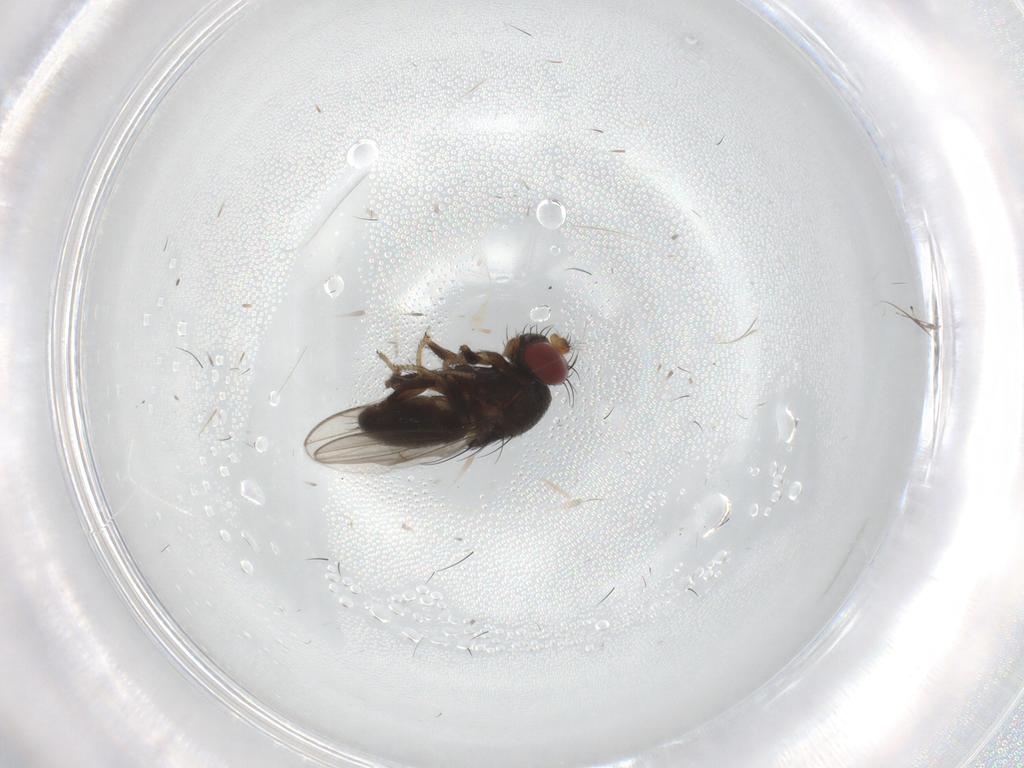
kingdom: Animalia
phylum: Arthropoda
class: Insecta
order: Diptera
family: Ephydridae
